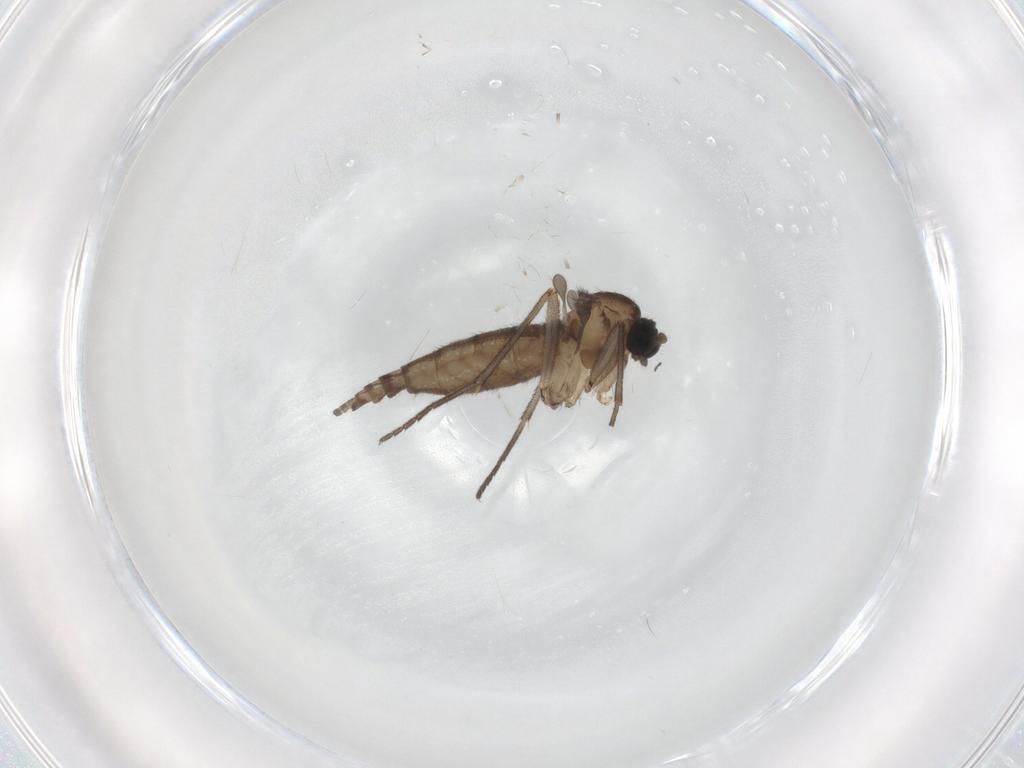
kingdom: Animalia
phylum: Arthropoda
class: Insecta
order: Diptera
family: Sciaridae
